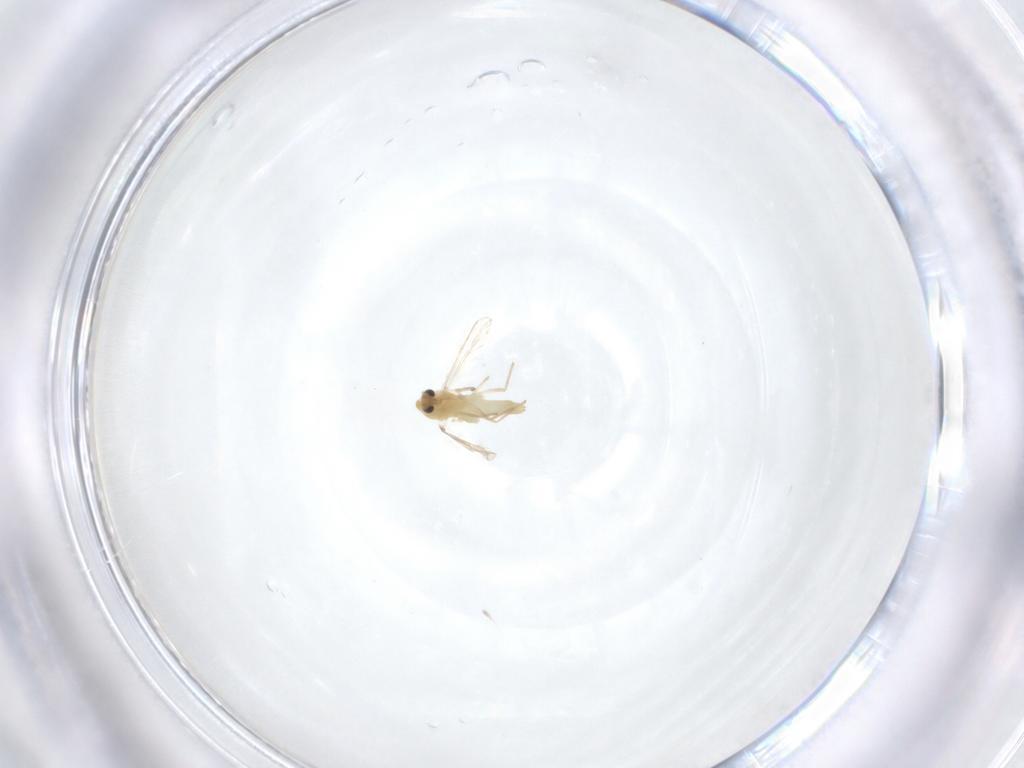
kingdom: Animalia
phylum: Arthropoda
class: Insecta
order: Diptera
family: Chironomidae
